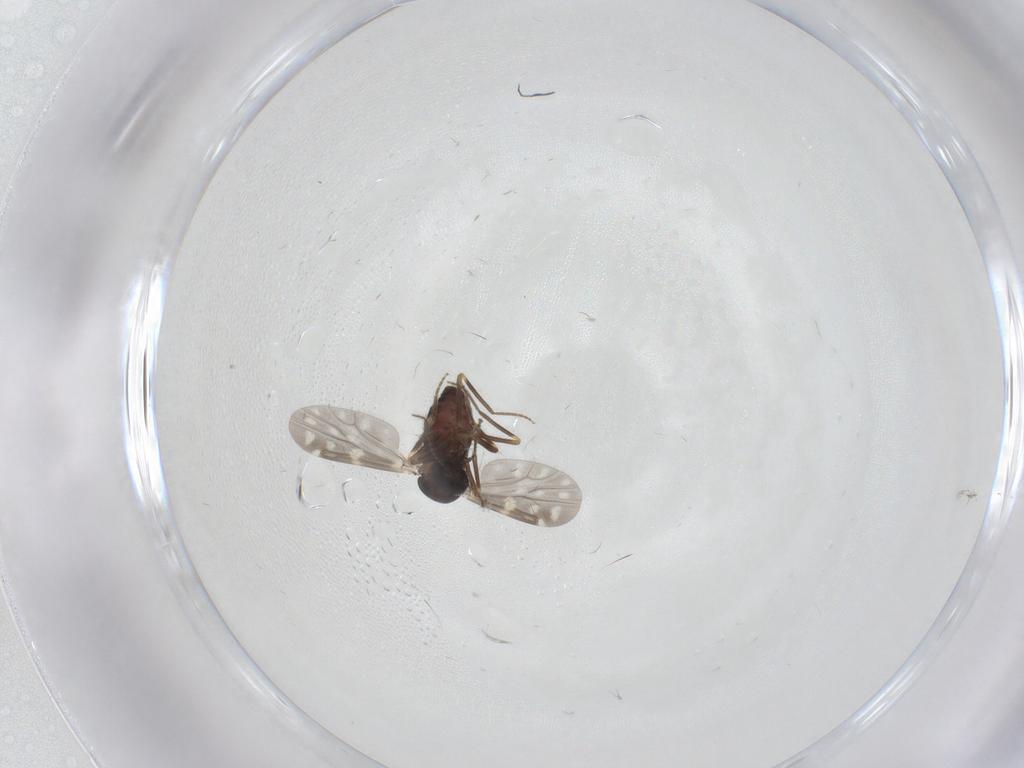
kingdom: Animalia
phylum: Arthropoda
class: Insecta
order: Diptera
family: Ceratopogonidae
